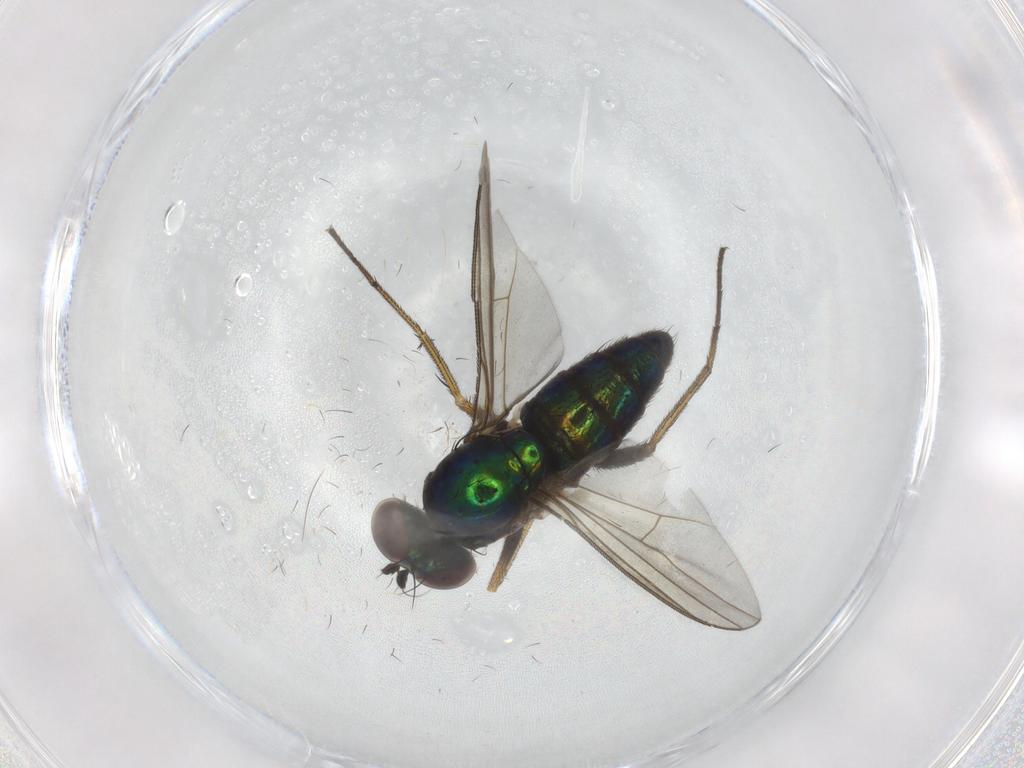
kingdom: Animalia
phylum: Arthropoda
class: Insecta
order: Diptera
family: Dolichopodidae
